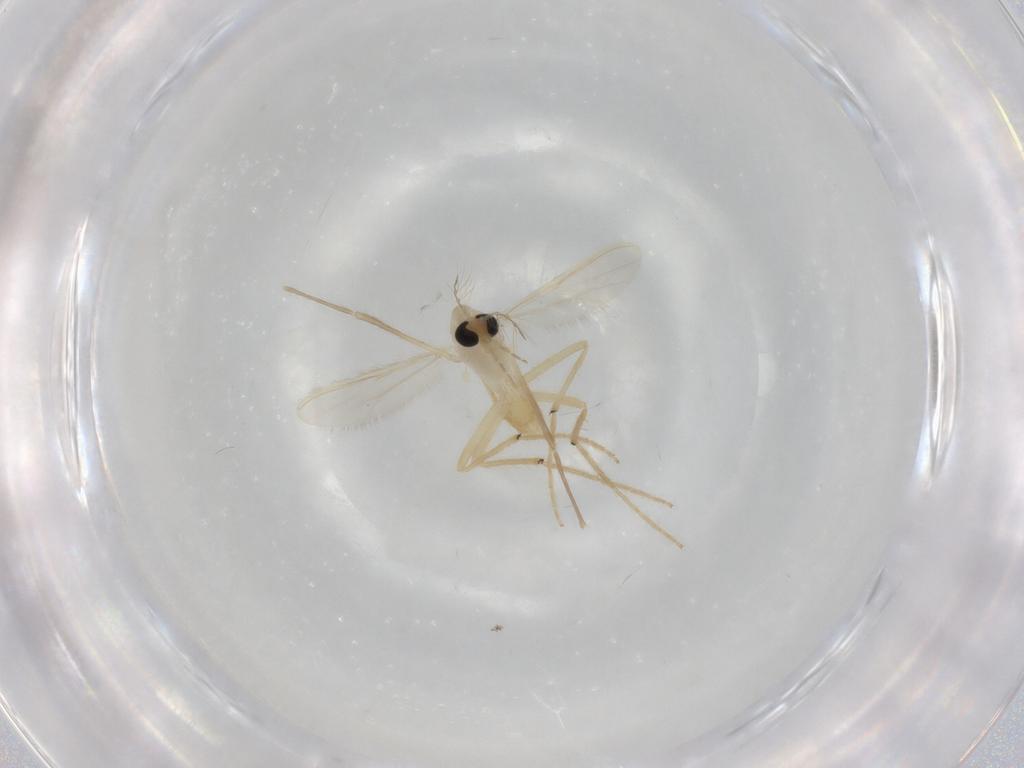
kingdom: Animalia
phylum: Arthropoda
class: Insecta
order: Diptera
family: Chironomidae
